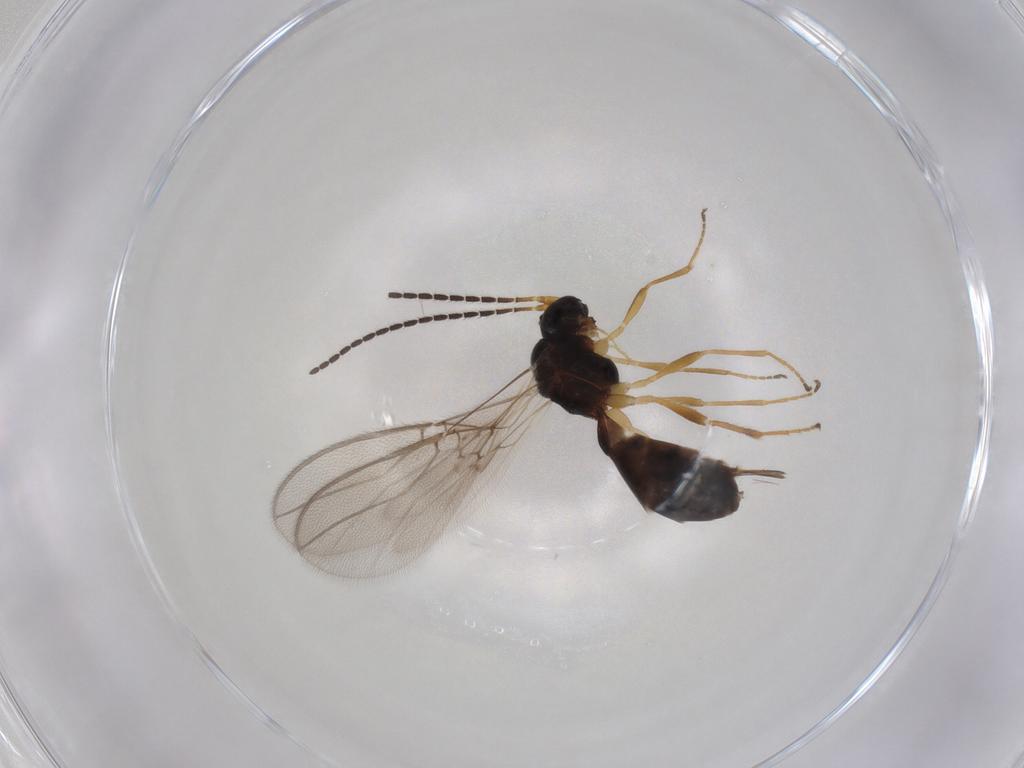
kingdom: Animalia
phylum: Arthropoda
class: Insecta
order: Hymenoptera
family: Braconidae
